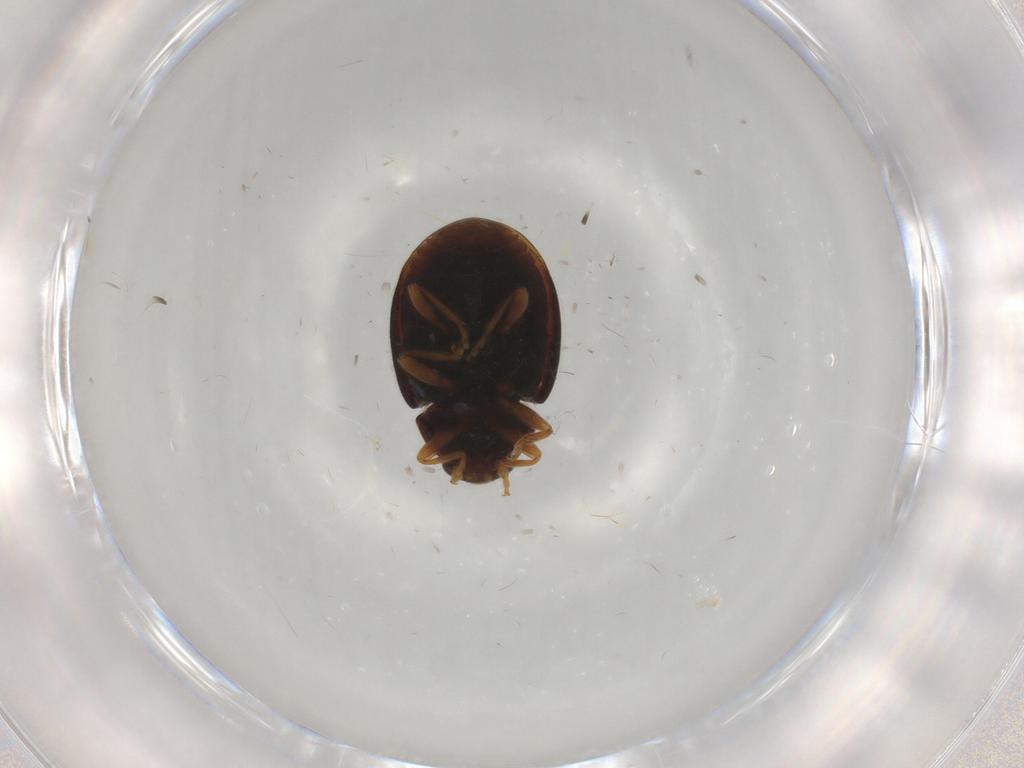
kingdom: Animalia
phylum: Arthropoda
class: Insecta
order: Coleoptera
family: Coccinellidae
